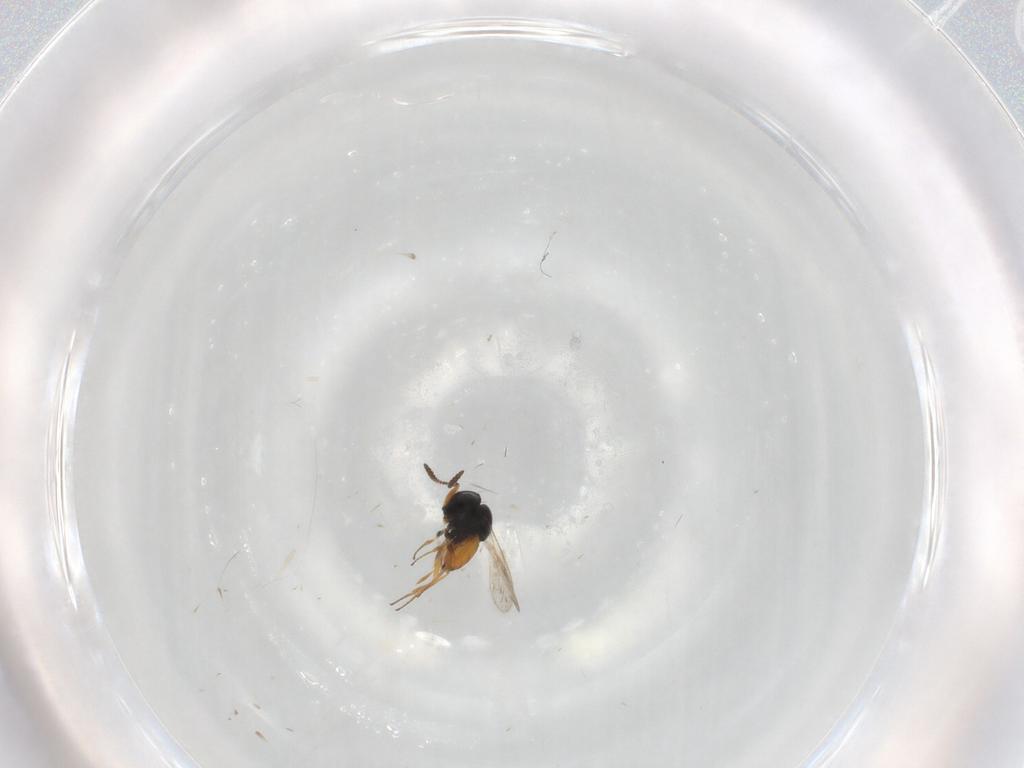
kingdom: Animalia
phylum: Arthropoda
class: Insecta
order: Hymenoptera
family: Scelionidae
